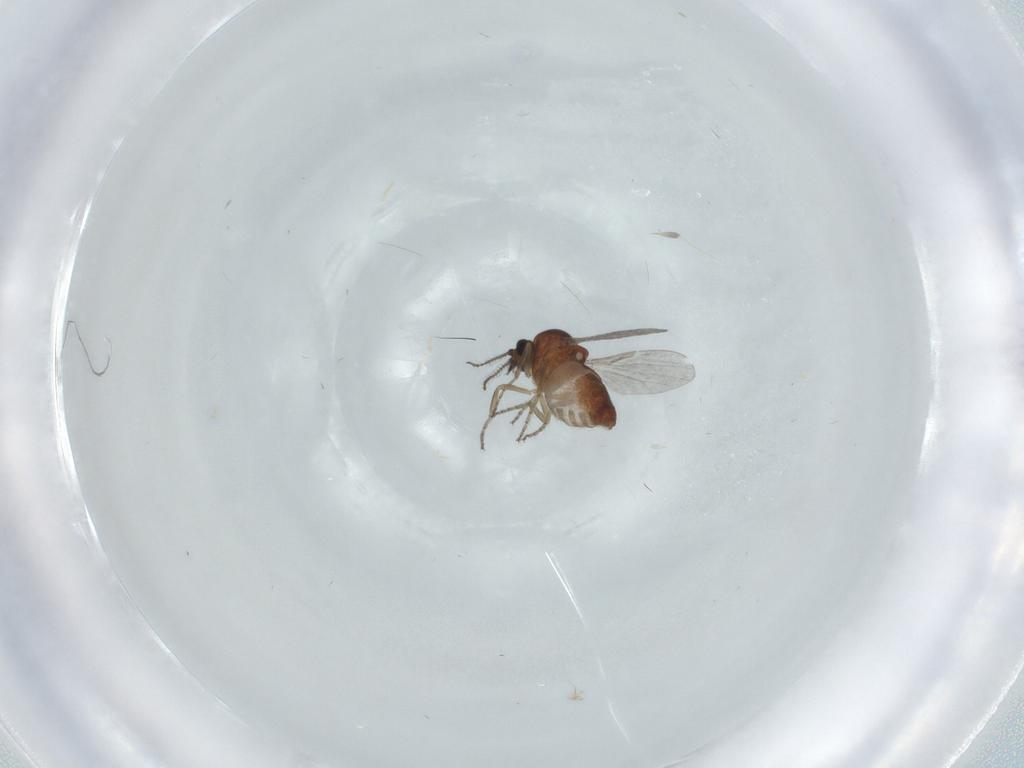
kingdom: Animalia
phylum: Arthropoda
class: Insecta
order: Diptera
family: Ceratopogonidae
